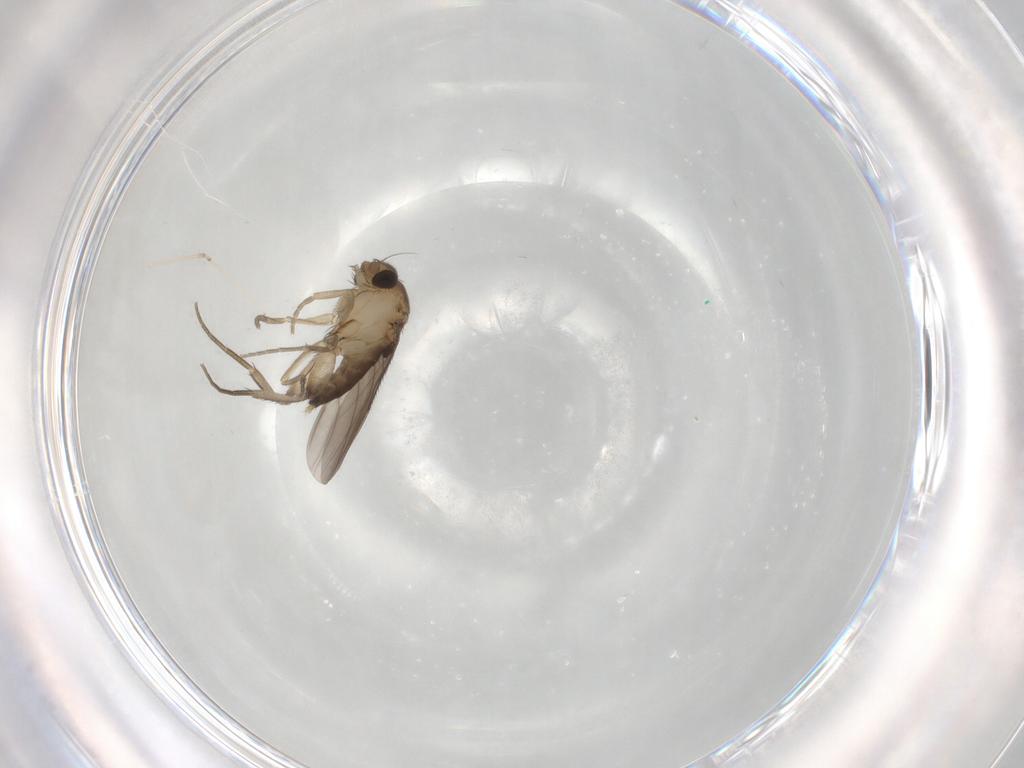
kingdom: Animalia
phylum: Arthropoda
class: Insecta
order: Diptera
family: Phoridae
